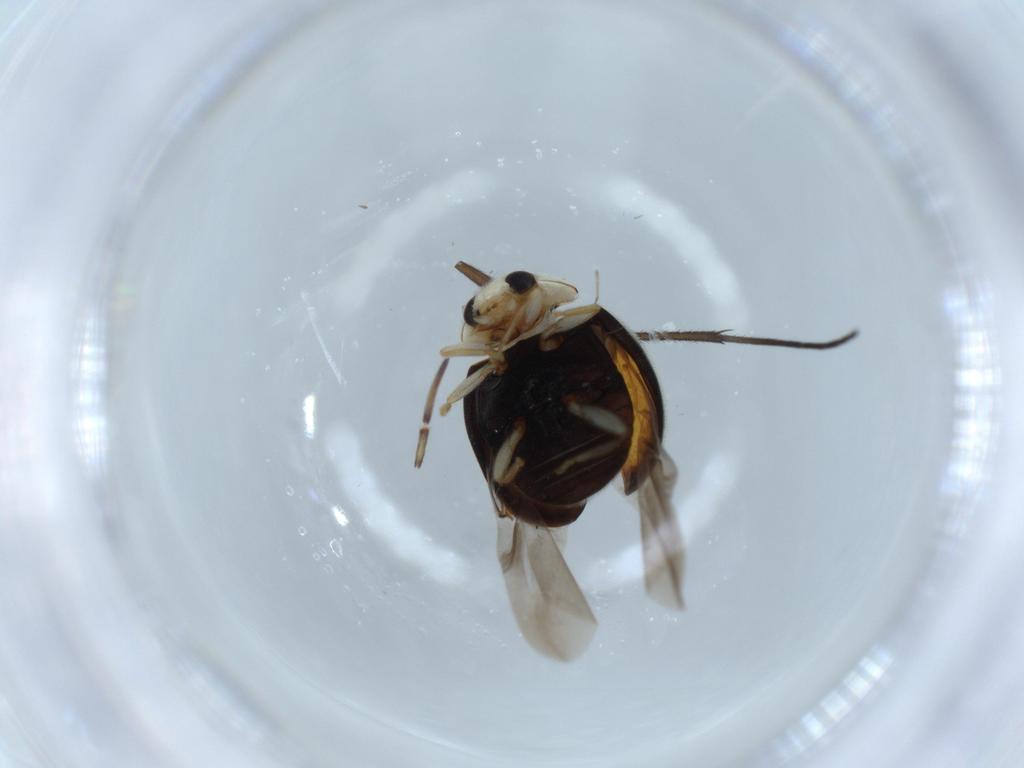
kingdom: Animalia
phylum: Arthropoda
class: Insecta
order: Coleoptera
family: Coccinellidae
